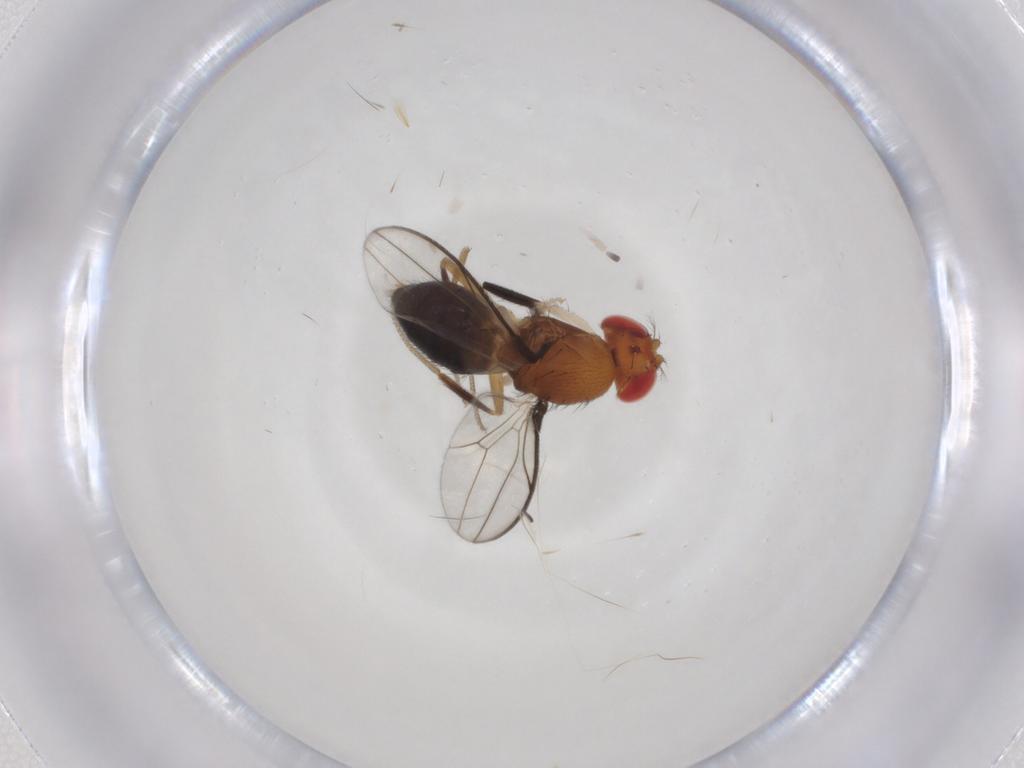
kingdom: Animalia
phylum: Arthropoda
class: Insecta
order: Diptera
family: Drosophilidae
